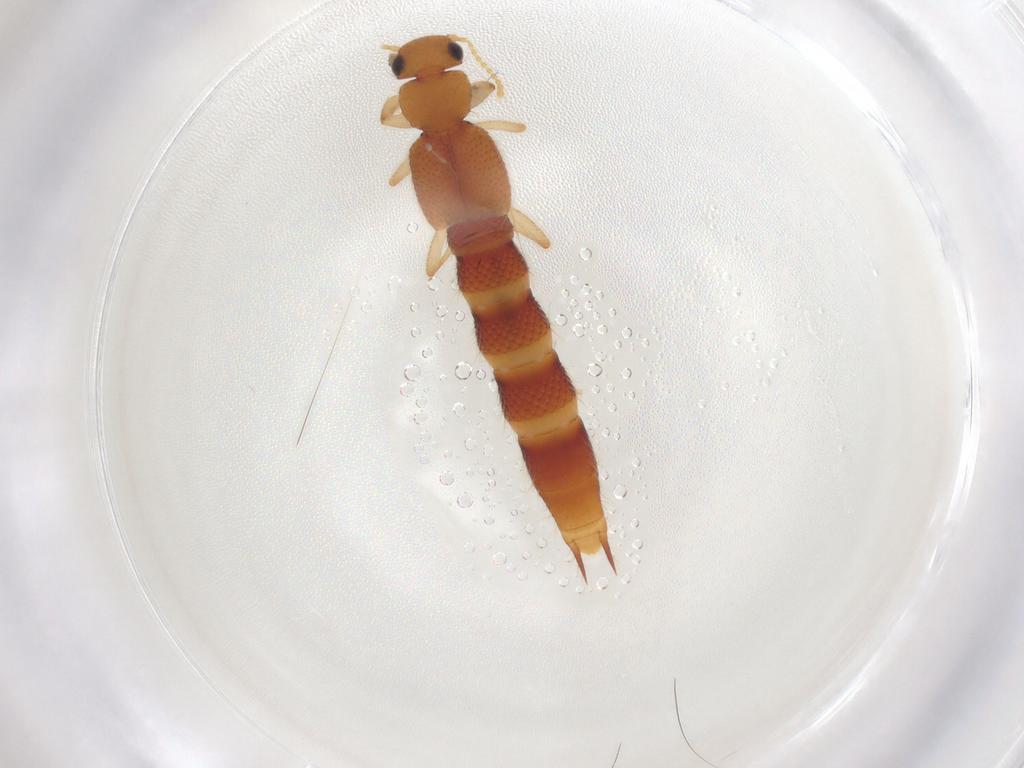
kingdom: Animalia
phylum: Arthropoda
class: Insecta
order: Coleoptera
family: Staphylinidae
